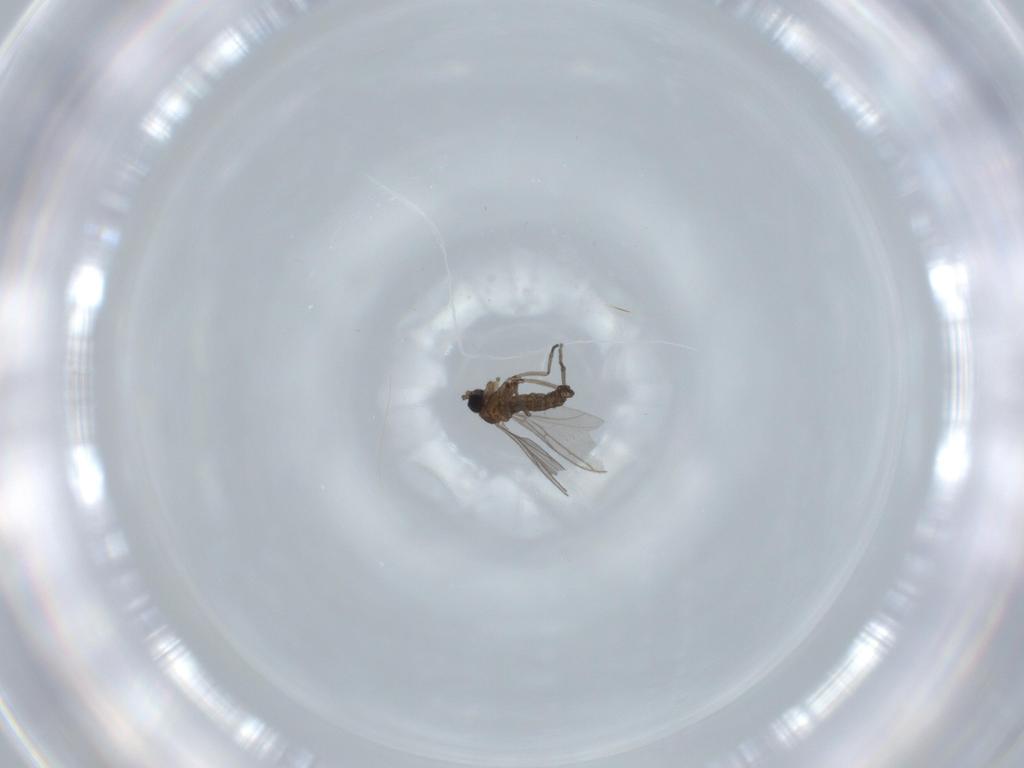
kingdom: Animalia
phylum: Arthropoda
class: Insecta
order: Diptera
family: Sphaeroceridae
